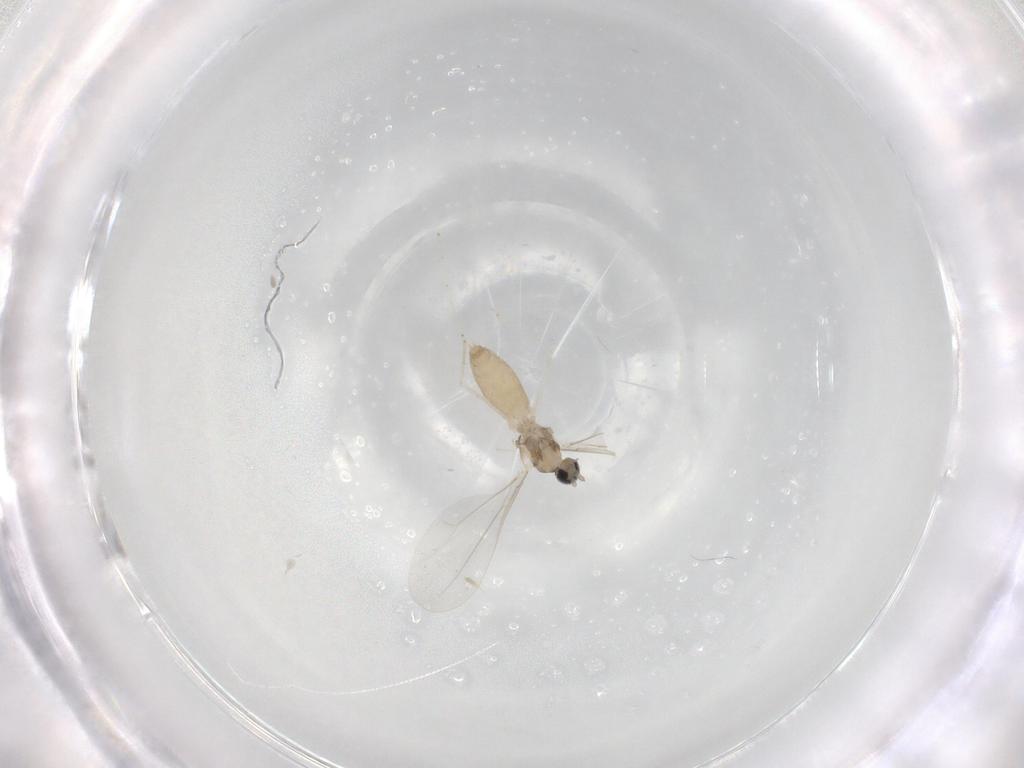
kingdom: Animalia
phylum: Arthropoda
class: Insecta
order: Diptera
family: Cecidomyiidae
